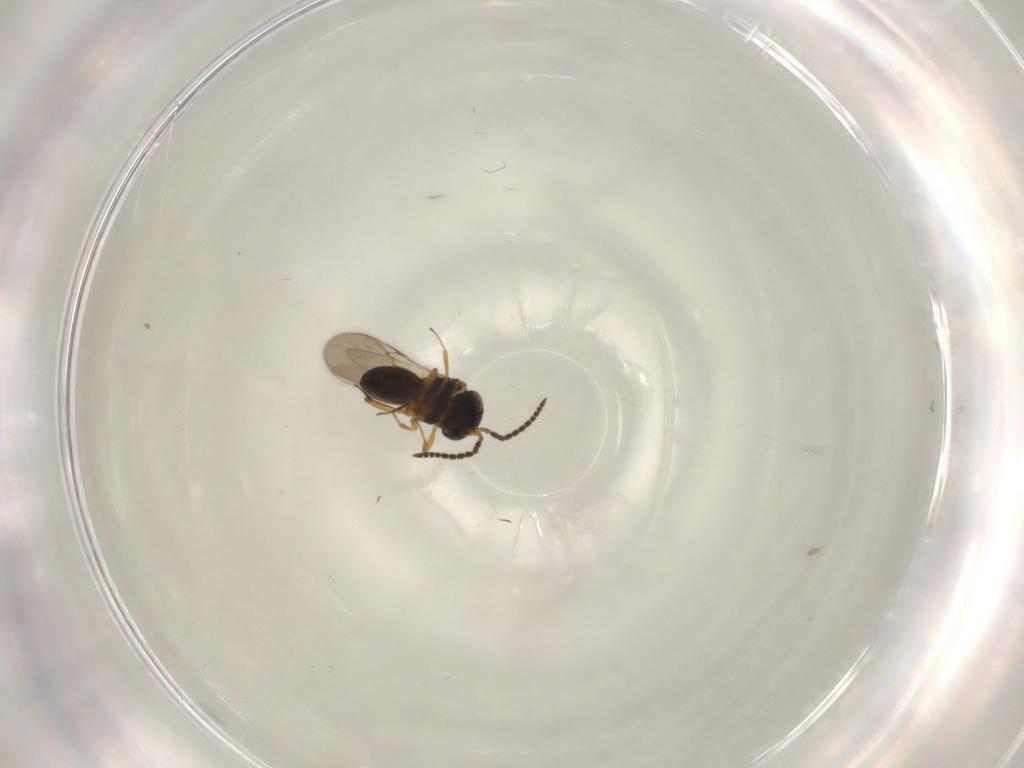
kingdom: Animalia
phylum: Arthropoda
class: Insecta
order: Hymenoptera
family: Scelionidae
